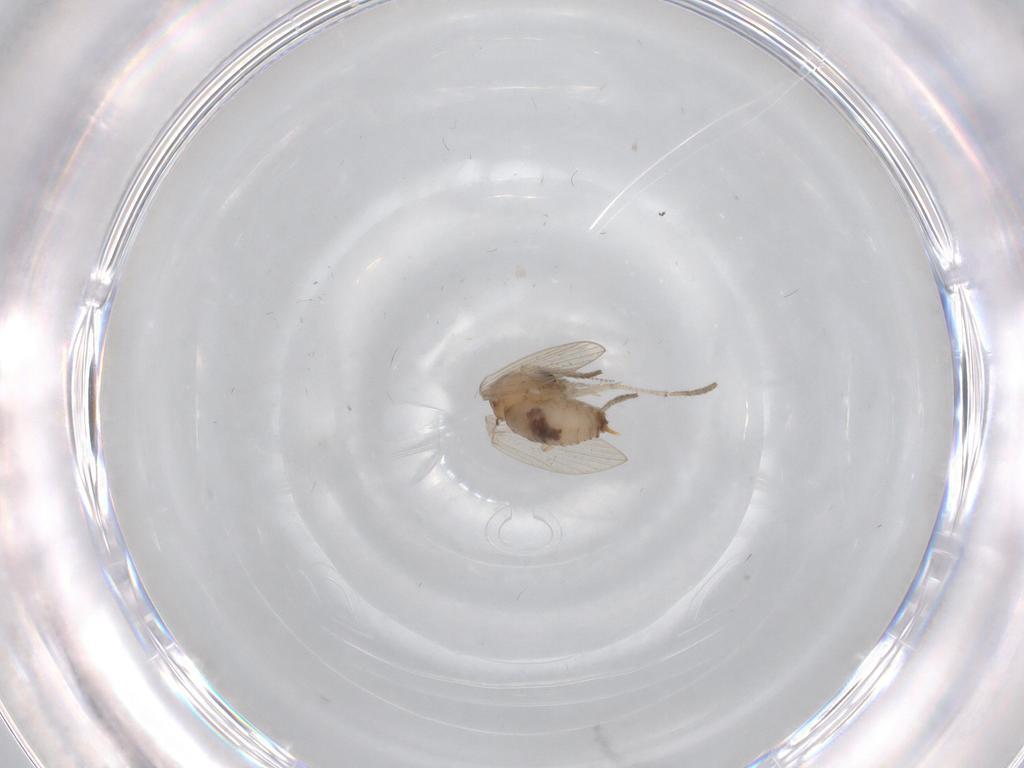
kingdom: Animalia
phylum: Arthropoda
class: Insecta
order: Diptera
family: Psychodidae
